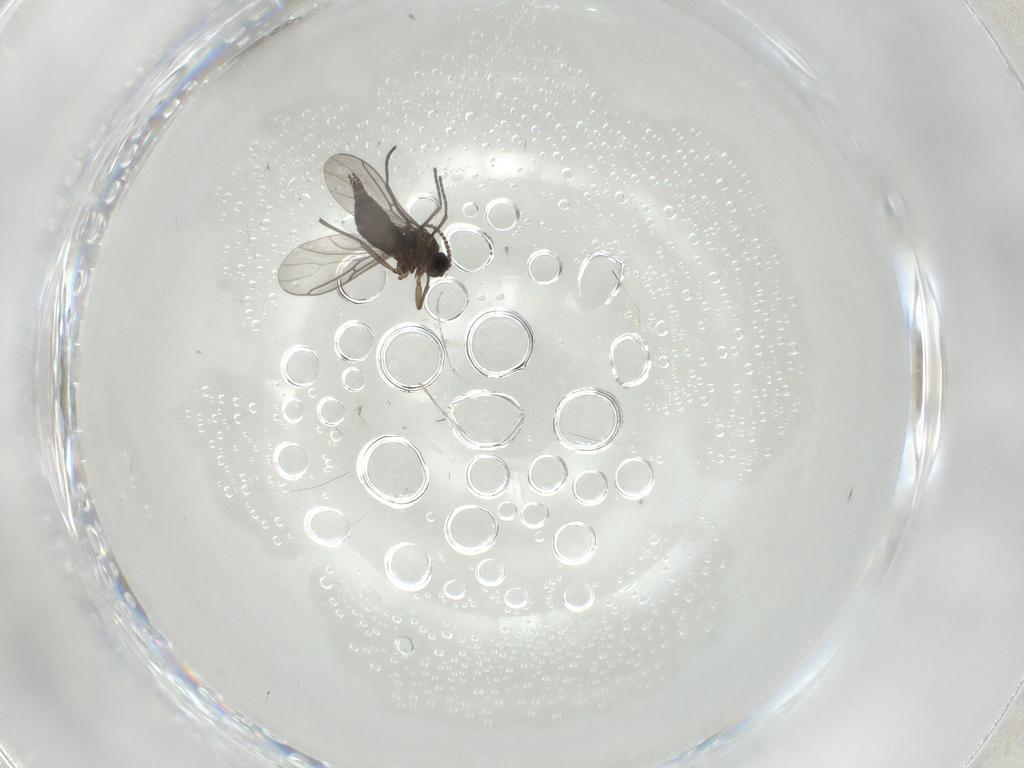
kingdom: Animalia
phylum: Arthropoda
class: Insecta
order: Diptera
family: Sciaridae
